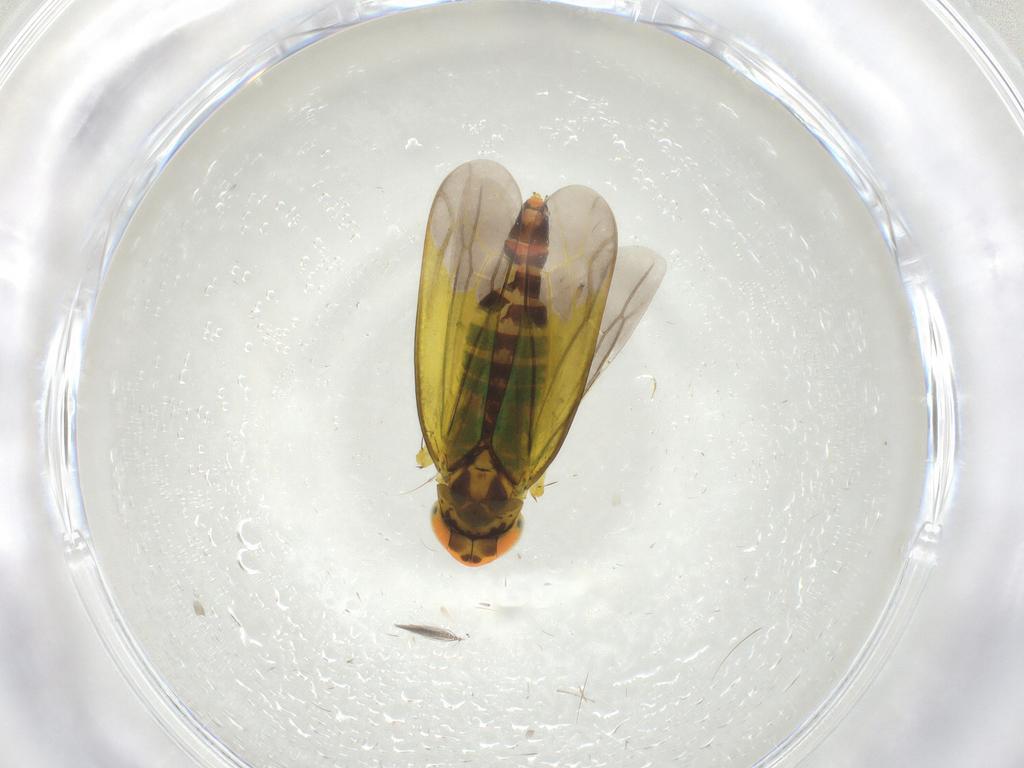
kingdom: Animalia
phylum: Arthropoda
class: Insecta
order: Hemiptera
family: Cicadellidae
